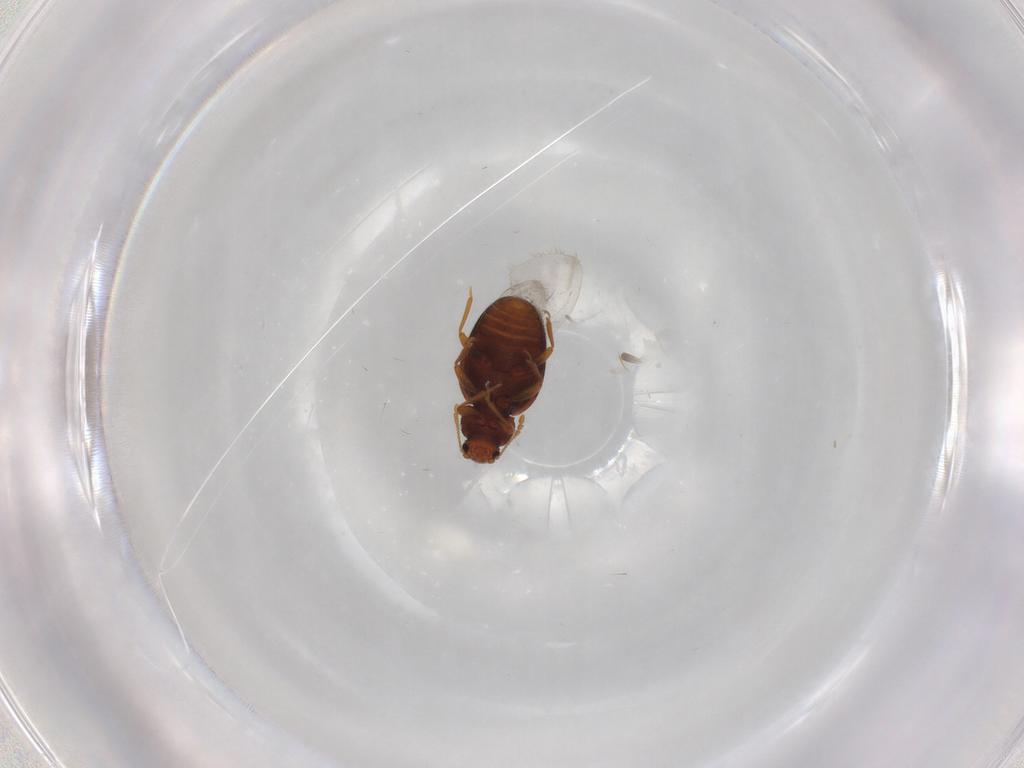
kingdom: Animalia
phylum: Arthropoda
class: Insecta
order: Coleoptera
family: Latridiidae
